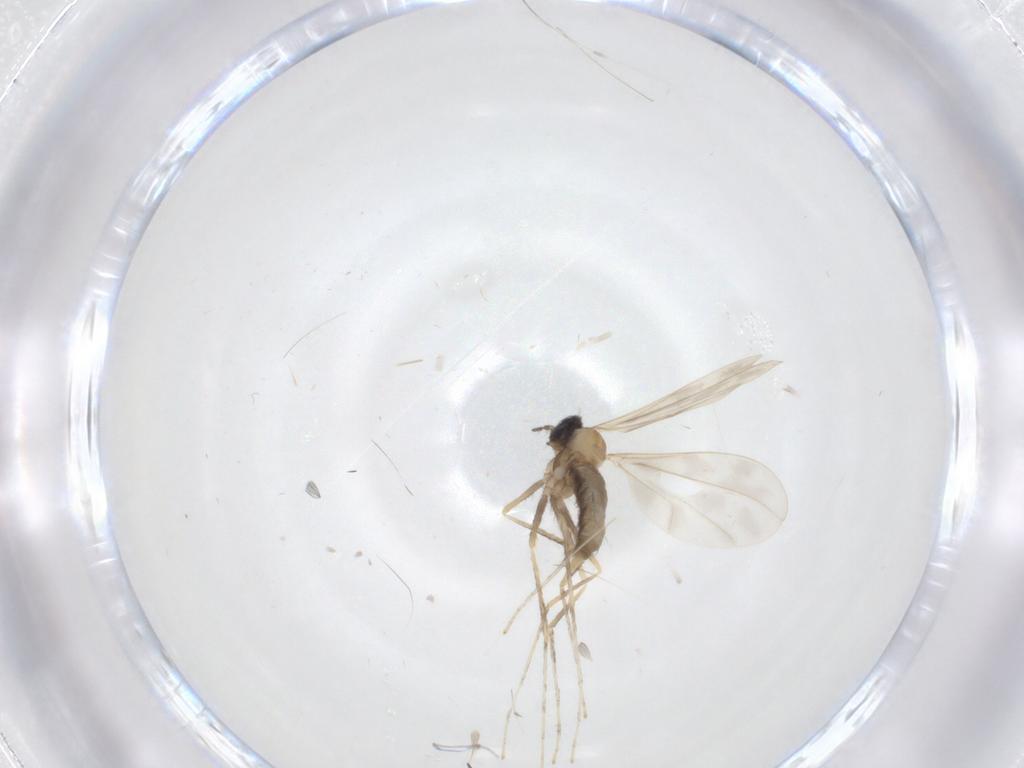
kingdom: Animalia
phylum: Arthropoda
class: Insecta
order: Diptera
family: Cecidomyiidae
